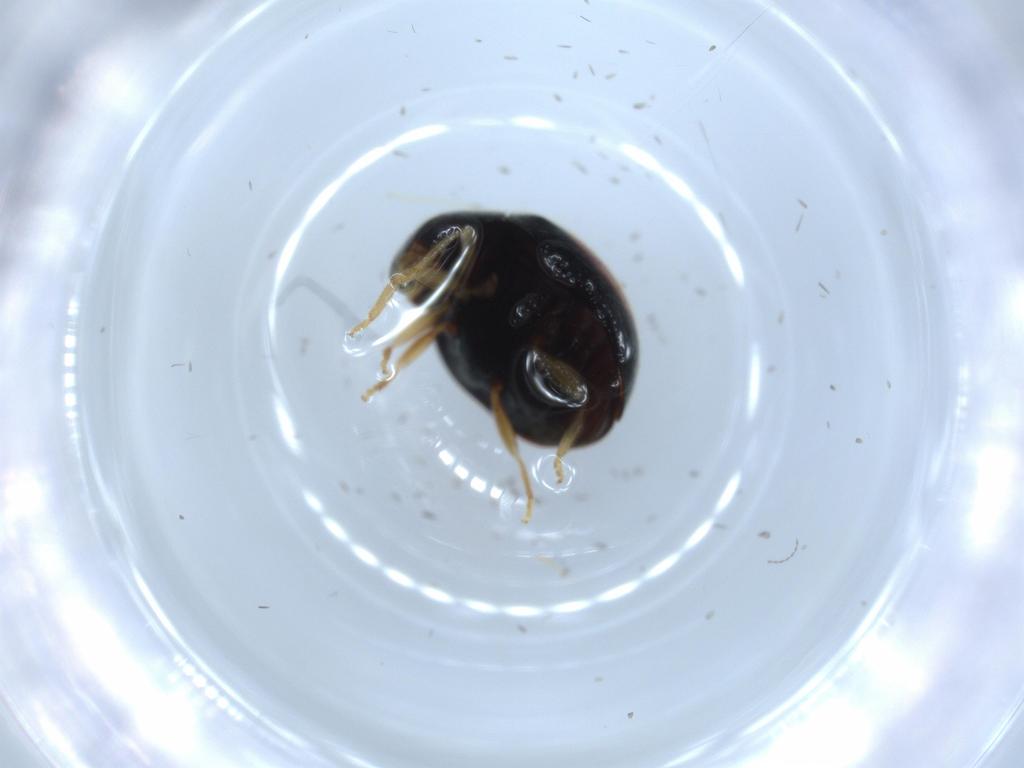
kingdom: Animalia
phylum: Arthropoda
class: Insecta
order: Coleoptera
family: Coccinellidae
